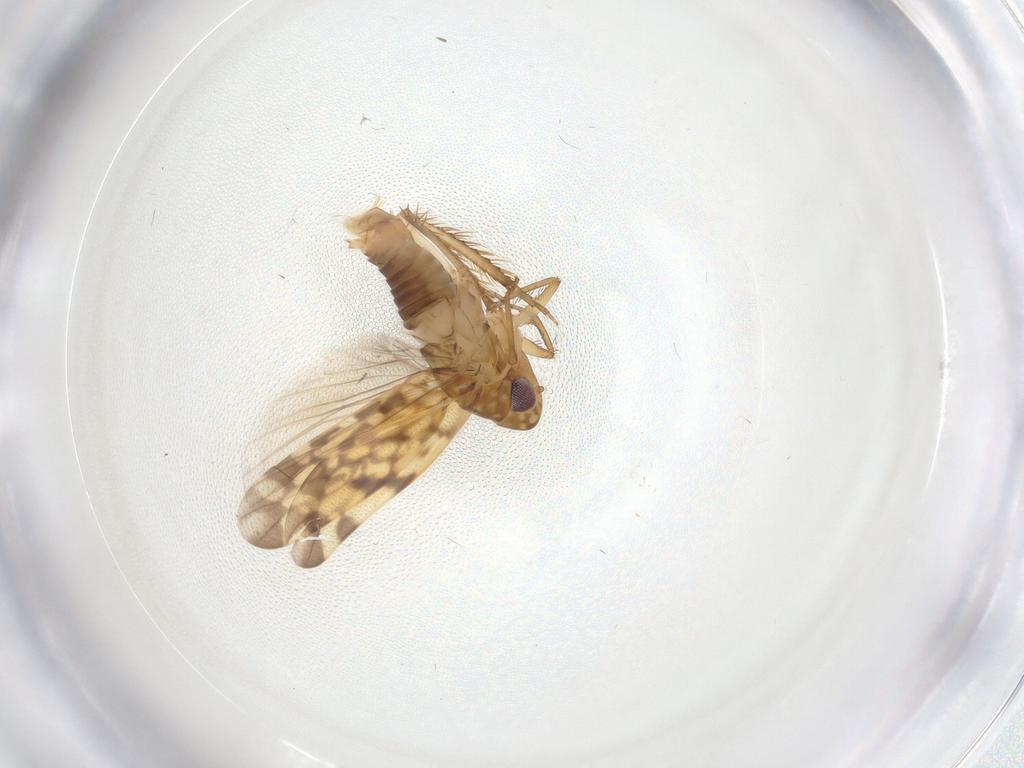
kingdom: Animalia
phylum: Arthropoda
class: Insecta
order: Hemiptera
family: Cicadellidae
